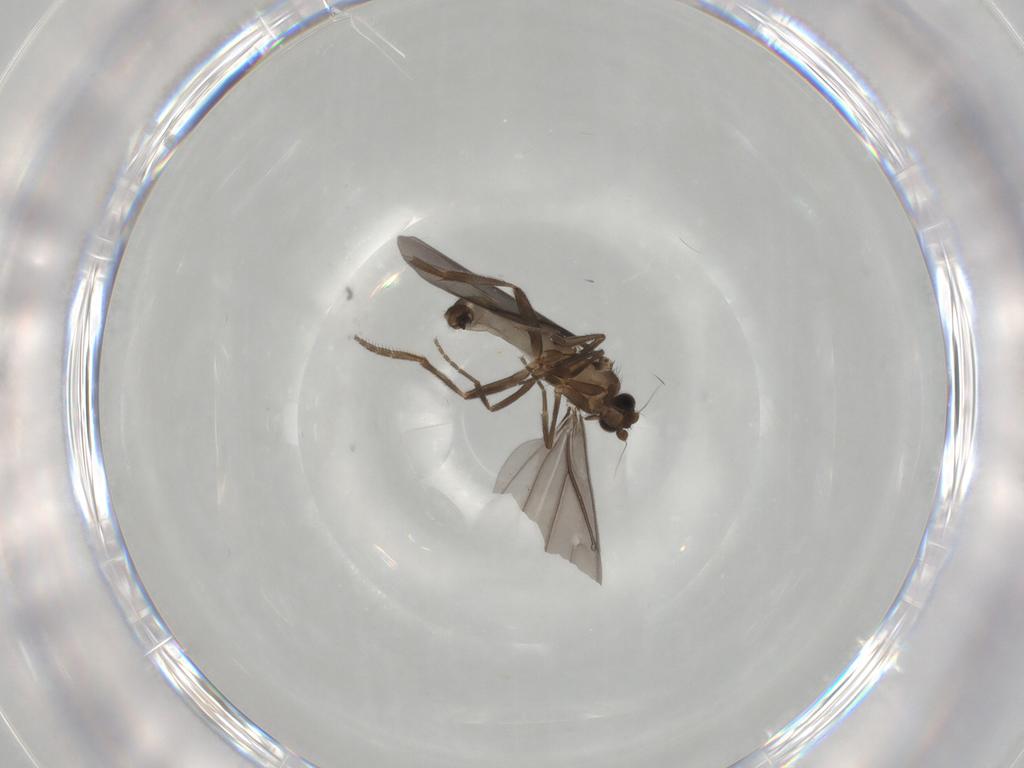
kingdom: Animalia
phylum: Arthropoda
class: Insecta
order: Diptera
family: Phoridae
